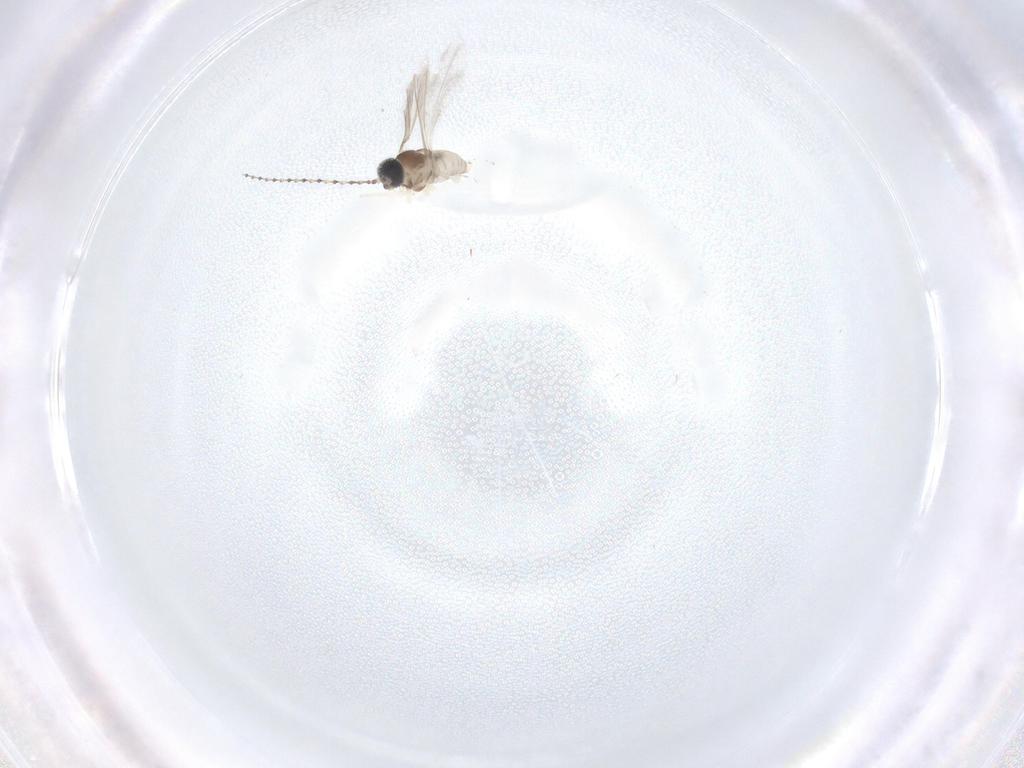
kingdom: Animalia
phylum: Arthropoda
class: Insecta
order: Diptera
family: Cecidomyiidae
